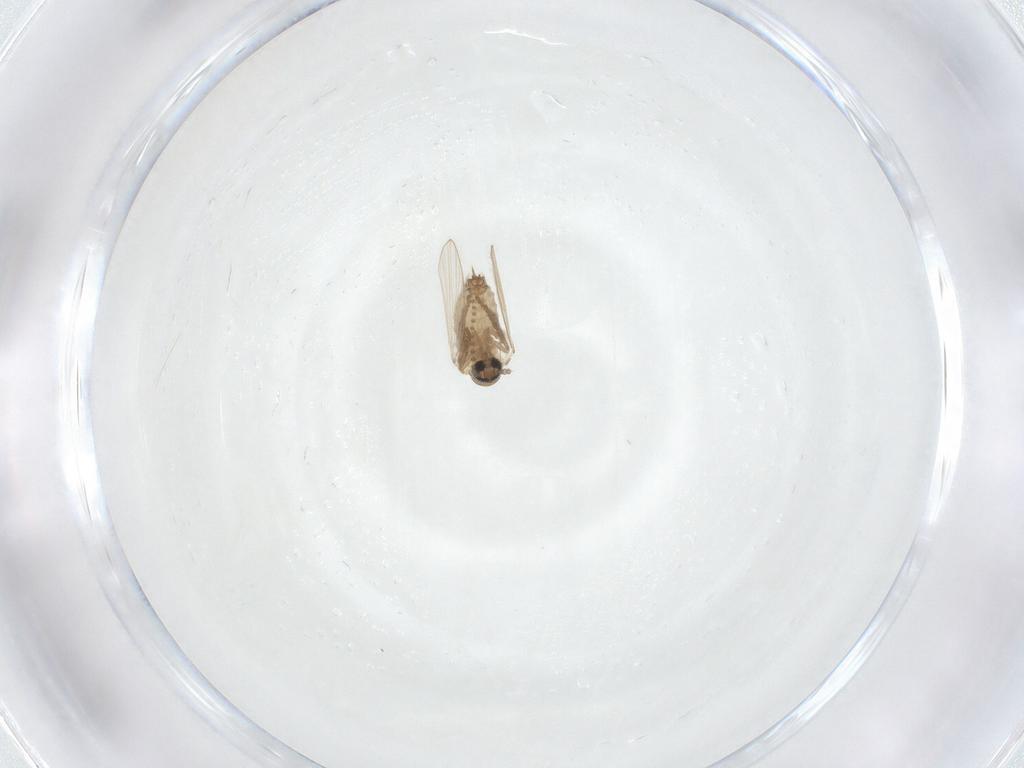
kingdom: Animalia
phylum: Arthropoda
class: Insecta
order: Diptera
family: Psychodidae
